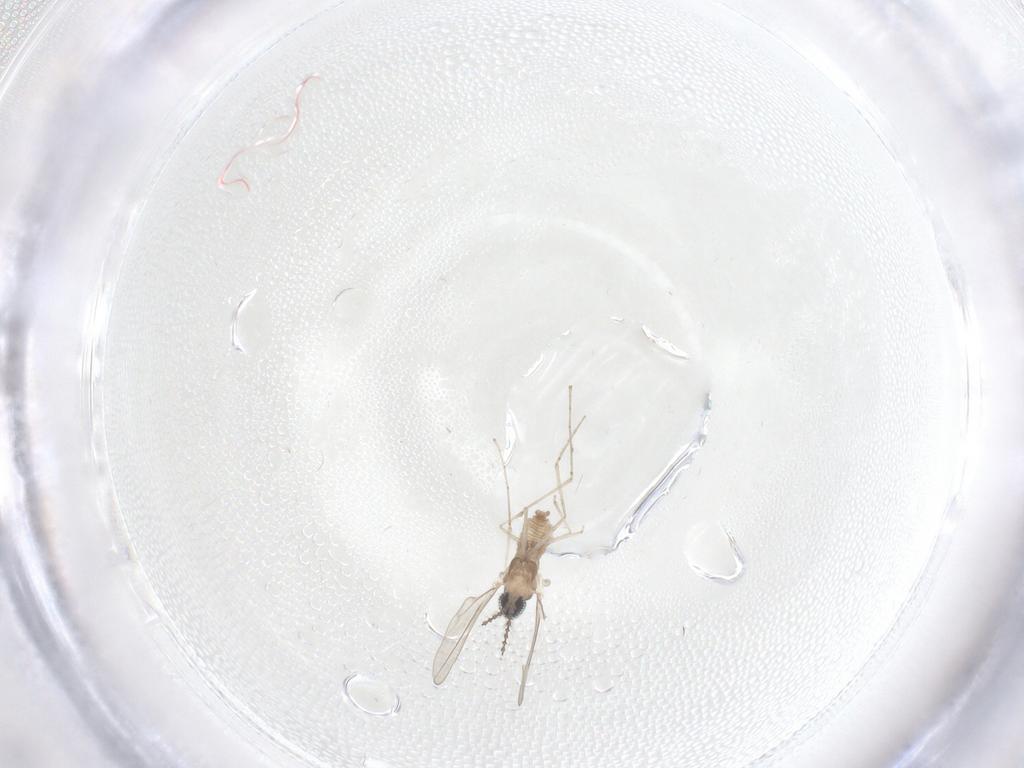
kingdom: Animalia
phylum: Arthropoda
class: Insecta
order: Diptera
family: Cecidomyiidae
